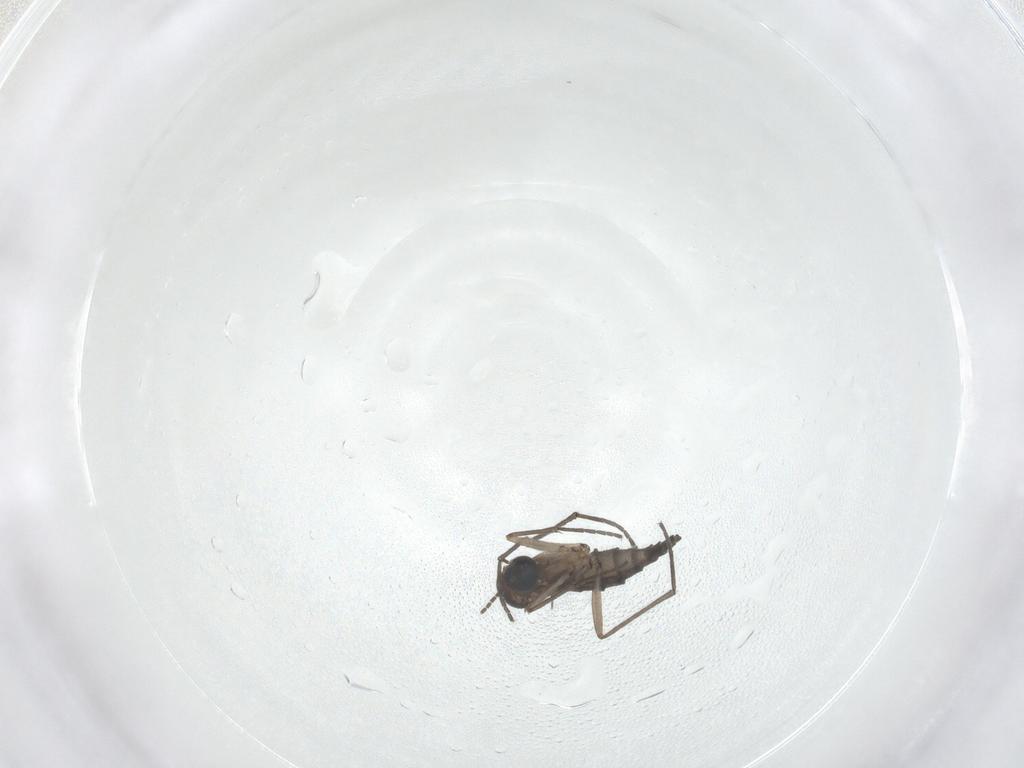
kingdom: Animalia
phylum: Arthropoda
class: Insecta
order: Diptera
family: Sciaridae
